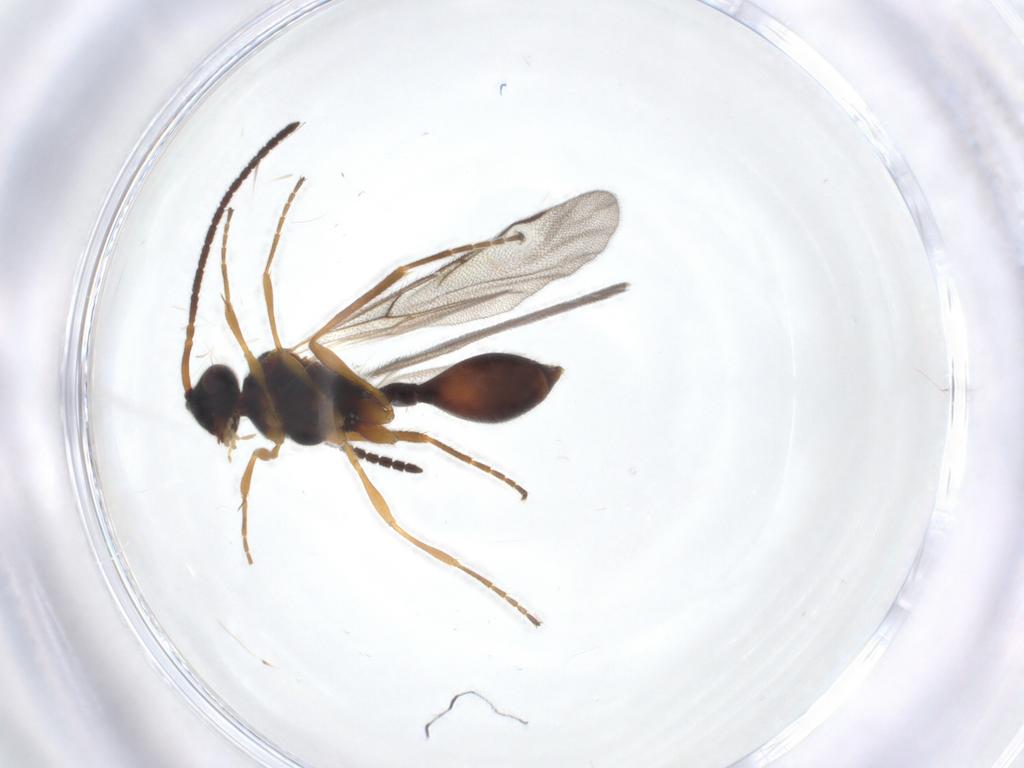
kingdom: Animalia
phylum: Arthropoda
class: Insecta
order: Hymenoptera
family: Diapriidae
